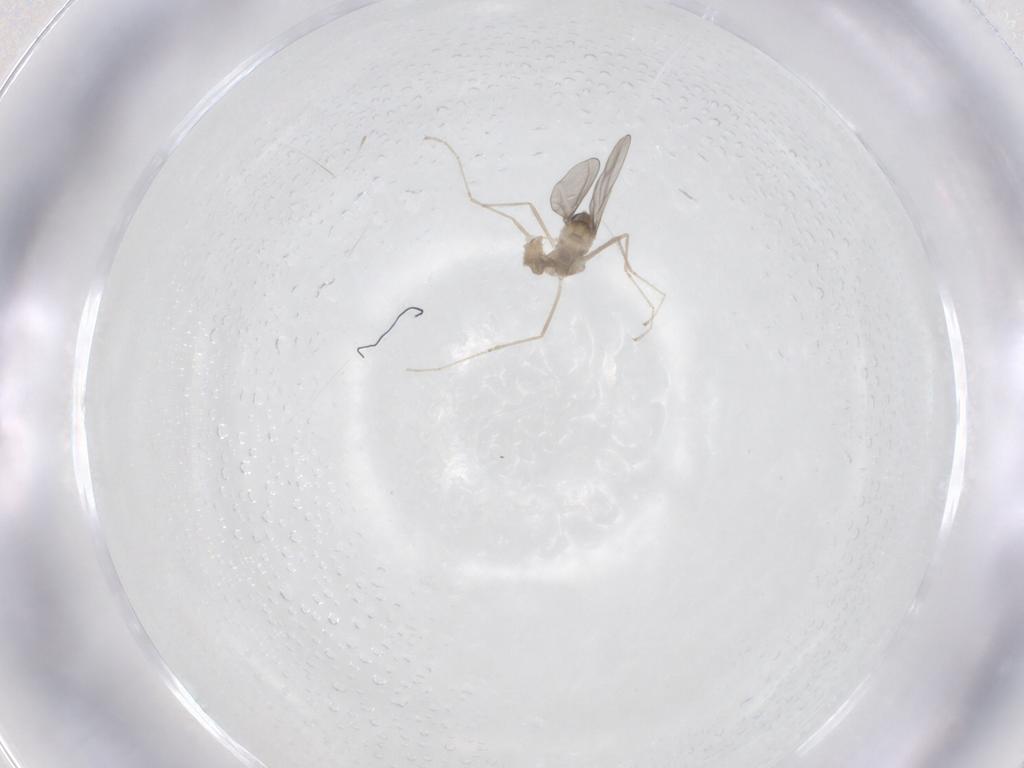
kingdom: Animalia
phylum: Arthropoda
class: Insecta
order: Diptera
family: Cecidomyiidae
